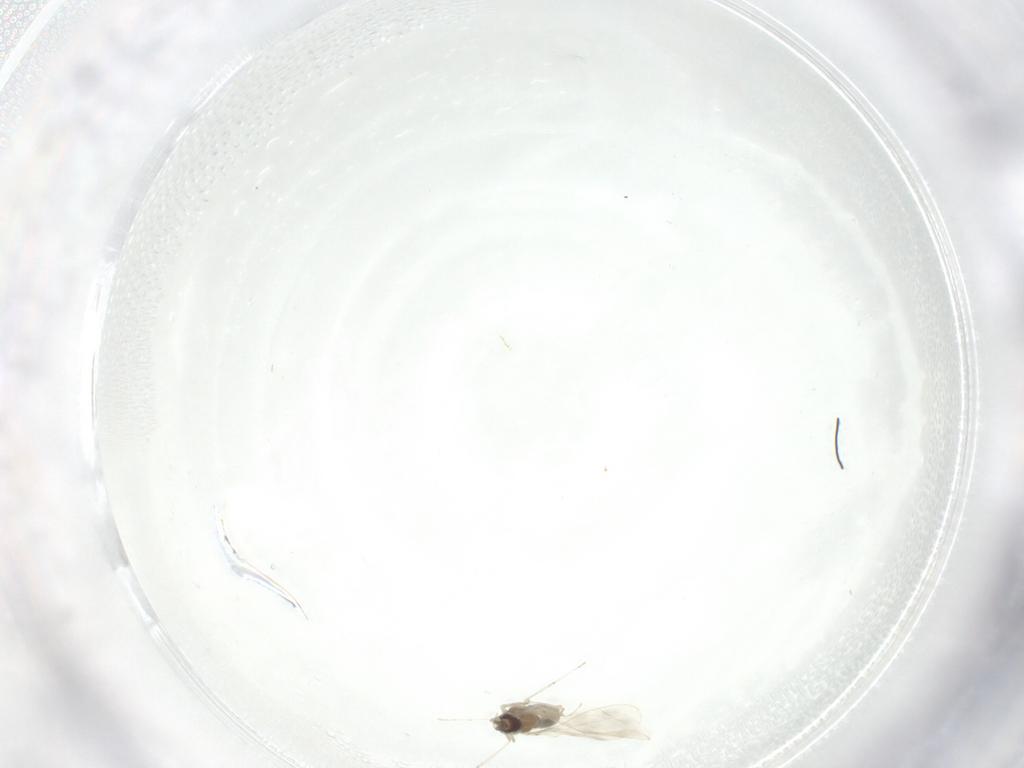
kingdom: Animalia
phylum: Arthropoda
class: Insecta
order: Diptera
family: Cecidomyiidae
